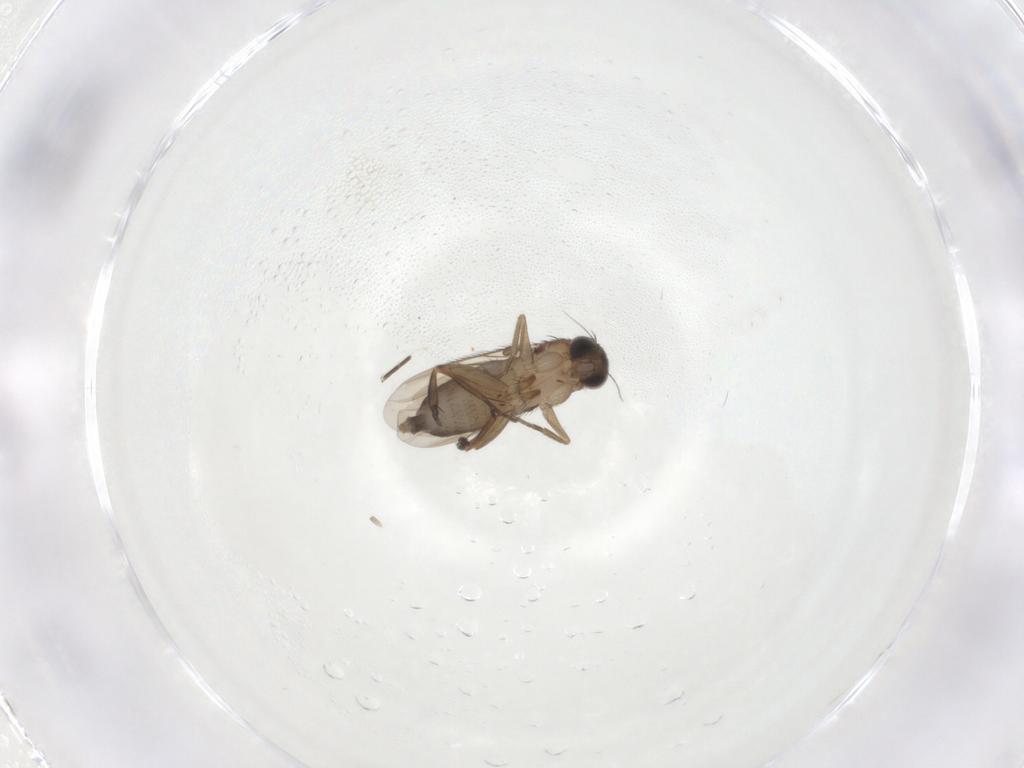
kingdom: Animalia
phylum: Arthropoda
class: Insecta
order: Diptera
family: Phoridae
